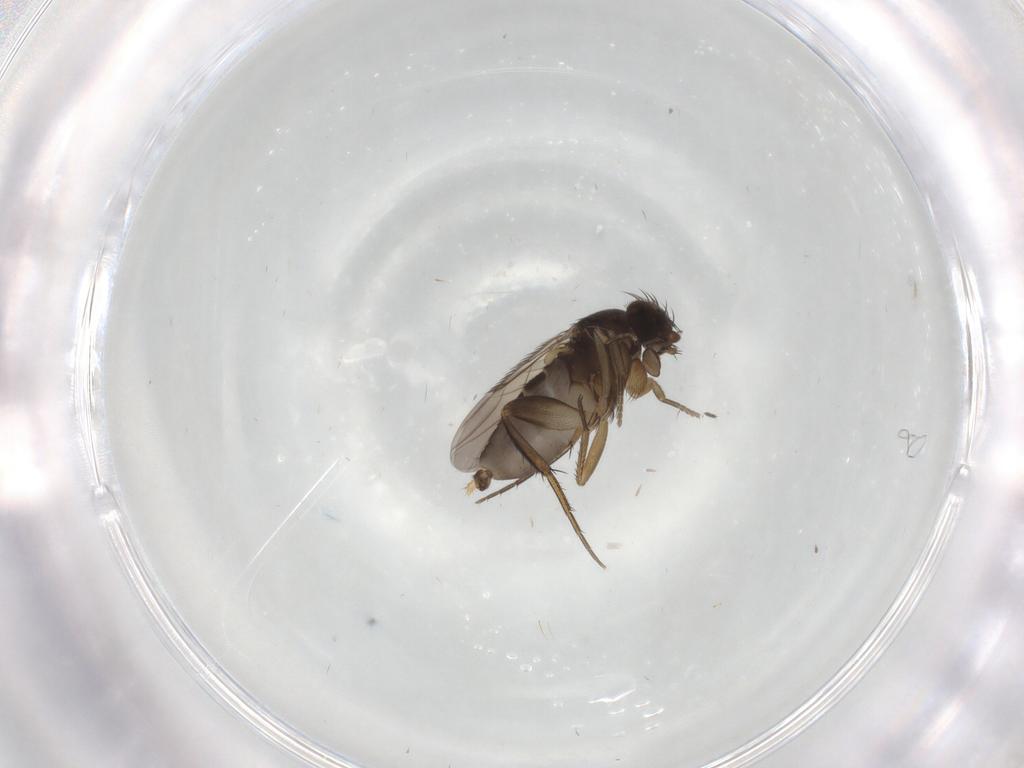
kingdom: Animalia
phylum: Arthropoda
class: Insecta
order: Diptera
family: Phoridae
